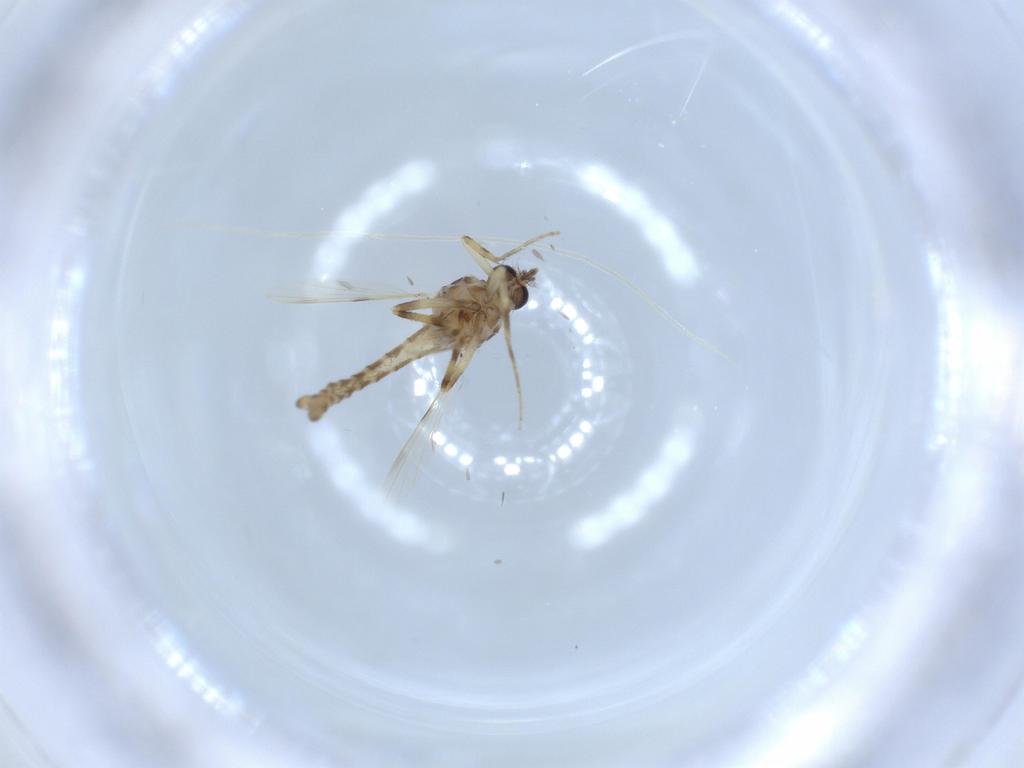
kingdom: Animalia
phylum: Arthropoda
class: Insecta
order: Diptera
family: Ceratopogonidae
